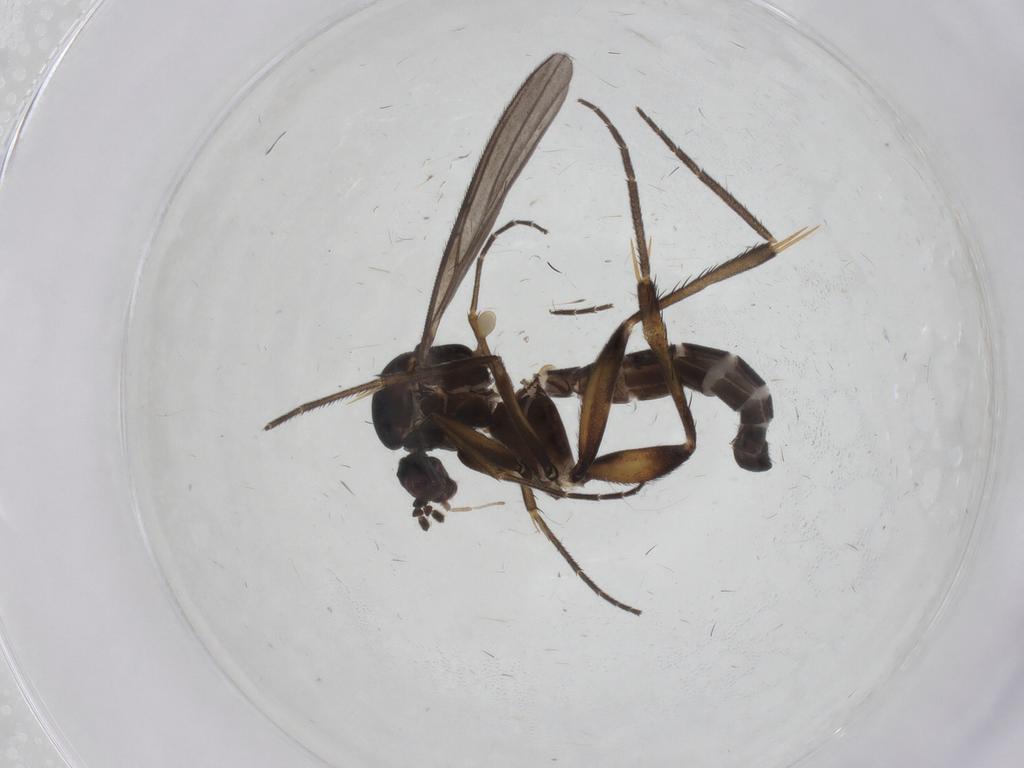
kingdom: Animalia
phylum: Arthropoda
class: Insecta
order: Diptera
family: Mycetophilidae
